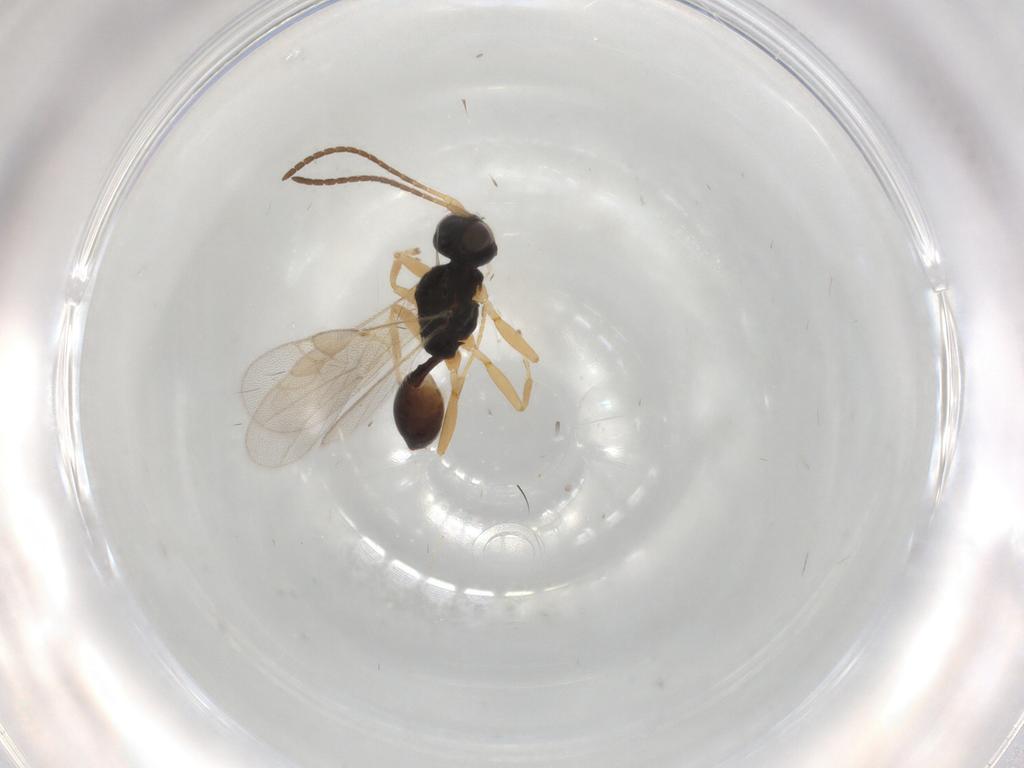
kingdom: Animalia
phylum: Arthropoda
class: Insecta
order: Hymenoptera
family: Braconidae
